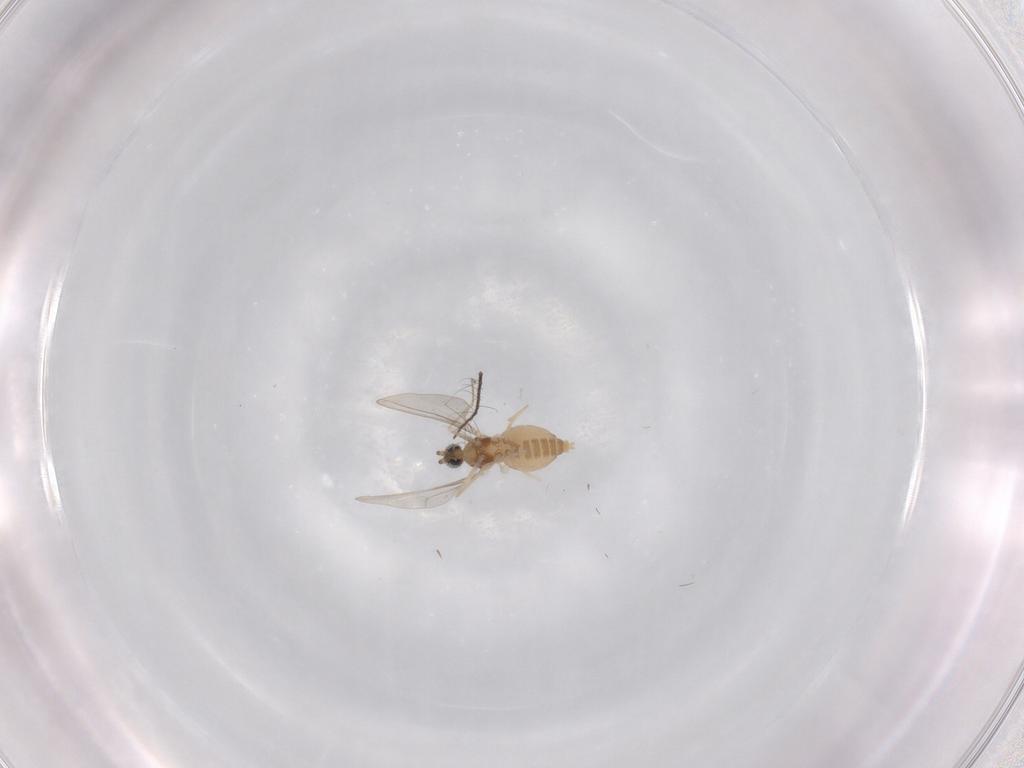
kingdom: Animalia
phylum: Arthropoda
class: Insecta
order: Diptera
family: Cecidomyiidae
